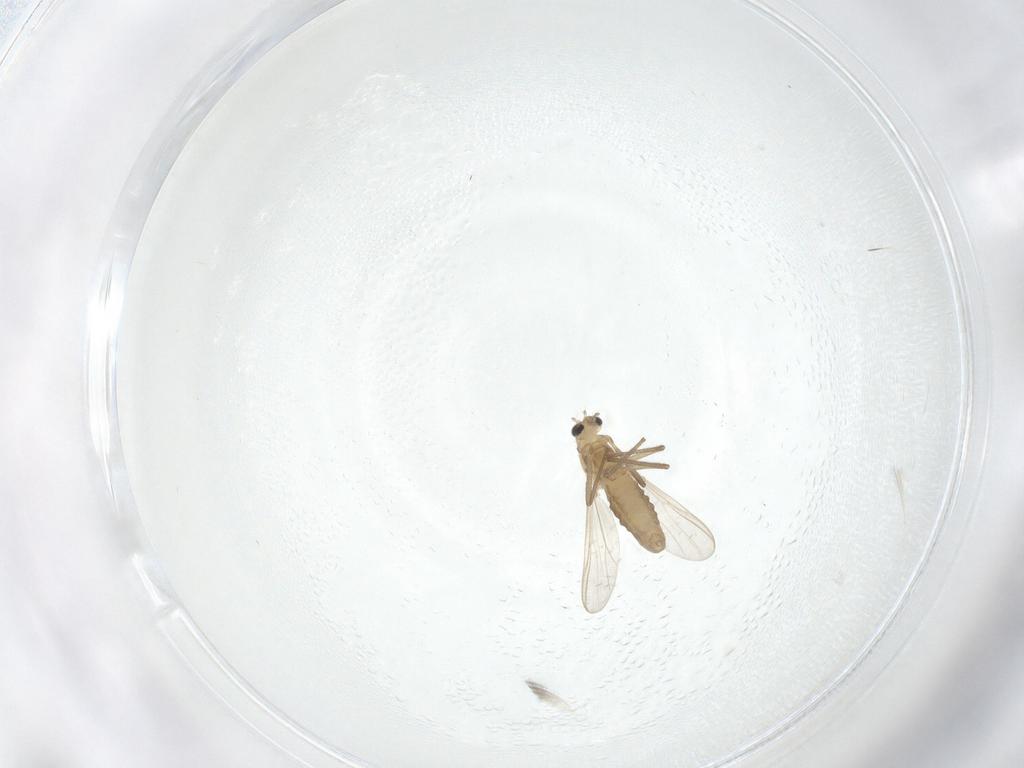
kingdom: Animalia
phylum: Arthropoda
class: Insecta
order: Diptera
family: Chironomidae
